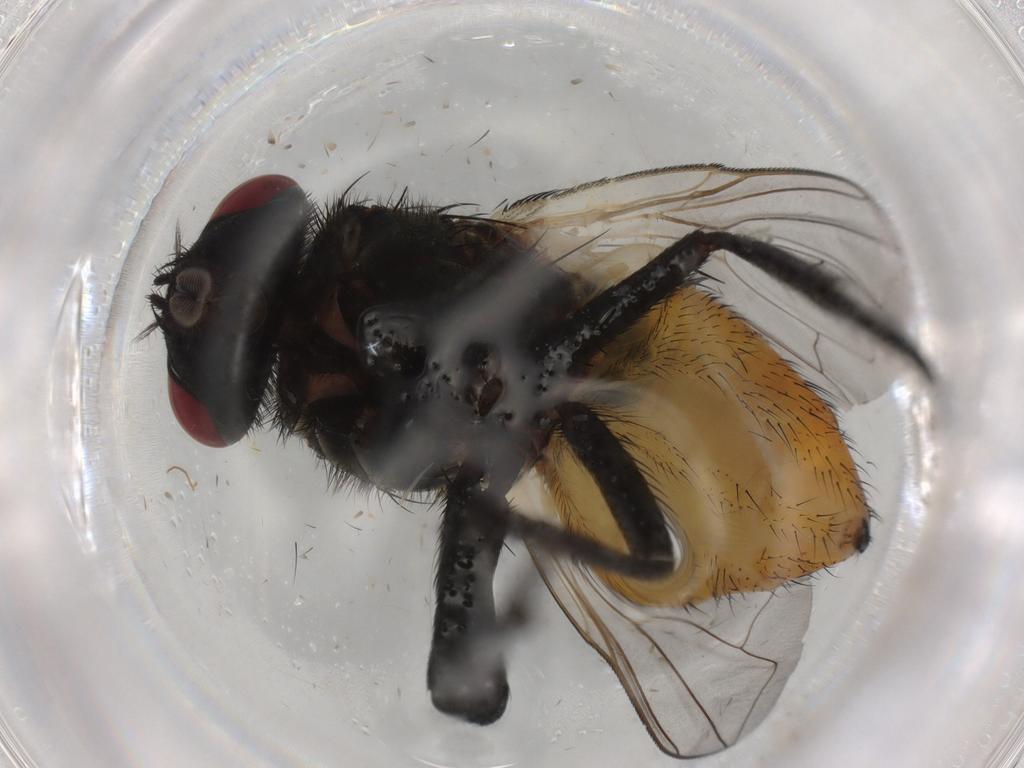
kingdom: Animalia
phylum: Arthropoda
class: Insecta
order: Diptera
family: Muscidae
